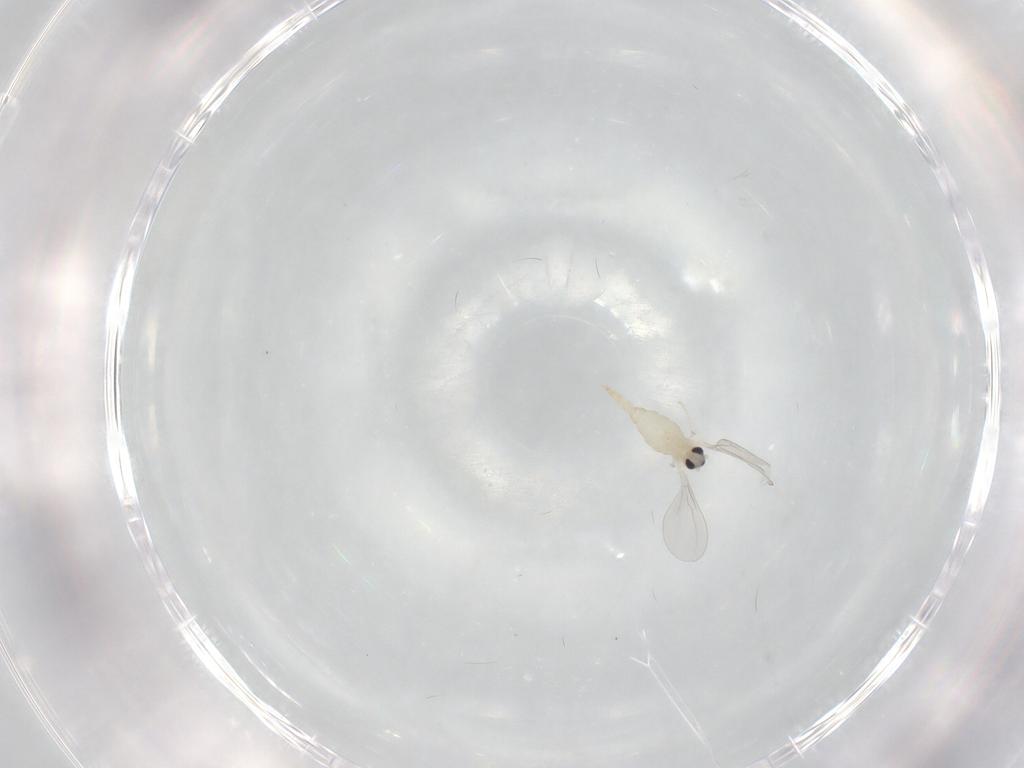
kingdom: Animalia
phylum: Arthropoda
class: Insecta
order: Diptera
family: Cecidomyiidae
